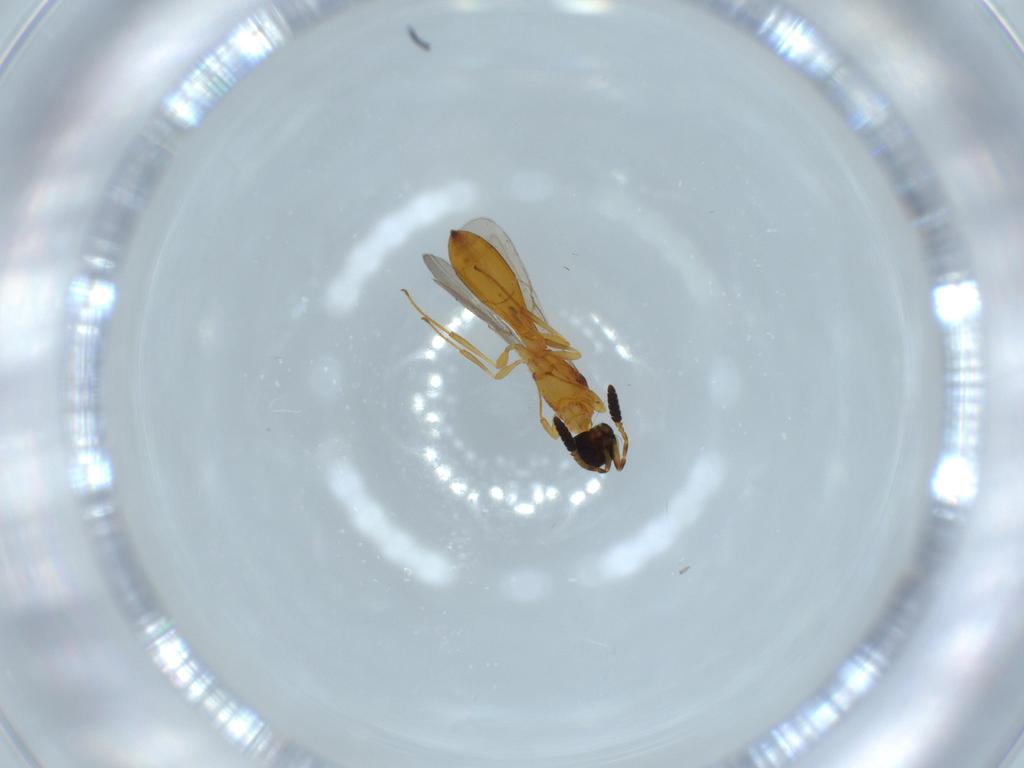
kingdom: Animalia
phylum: Arthropoda
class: Insecta
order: Hymenoptera
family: Scelionidae
